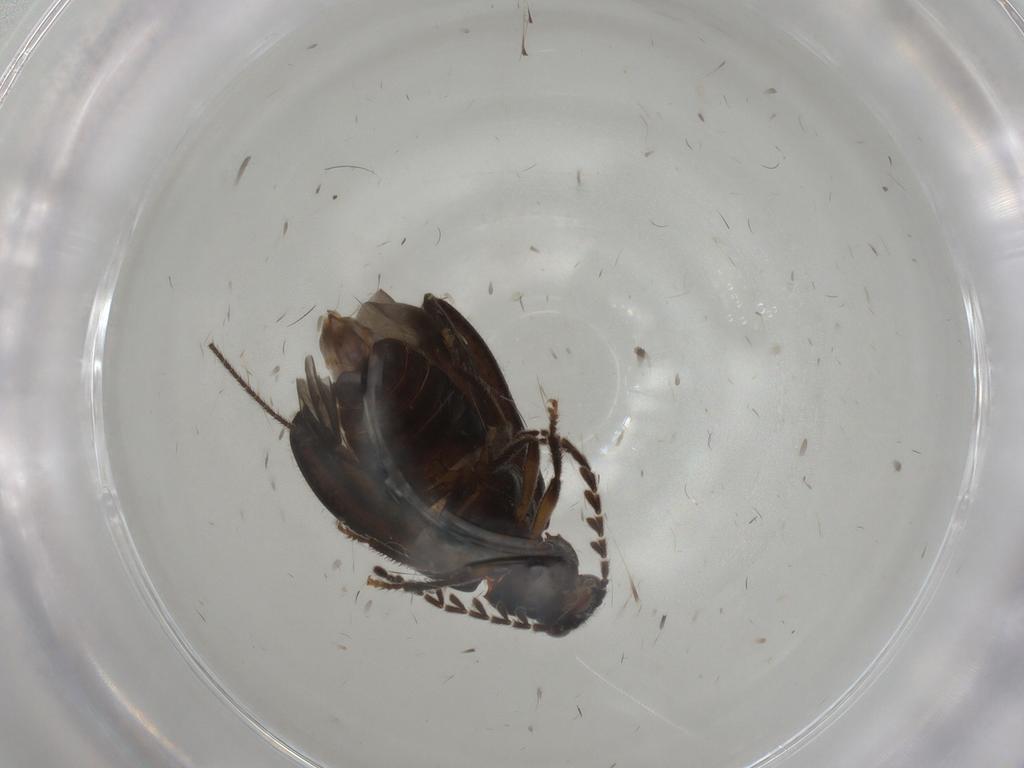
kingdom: Animalia
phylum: Arthropoda
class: Insecta
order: Coleoptera
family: Ptilodactylidae
